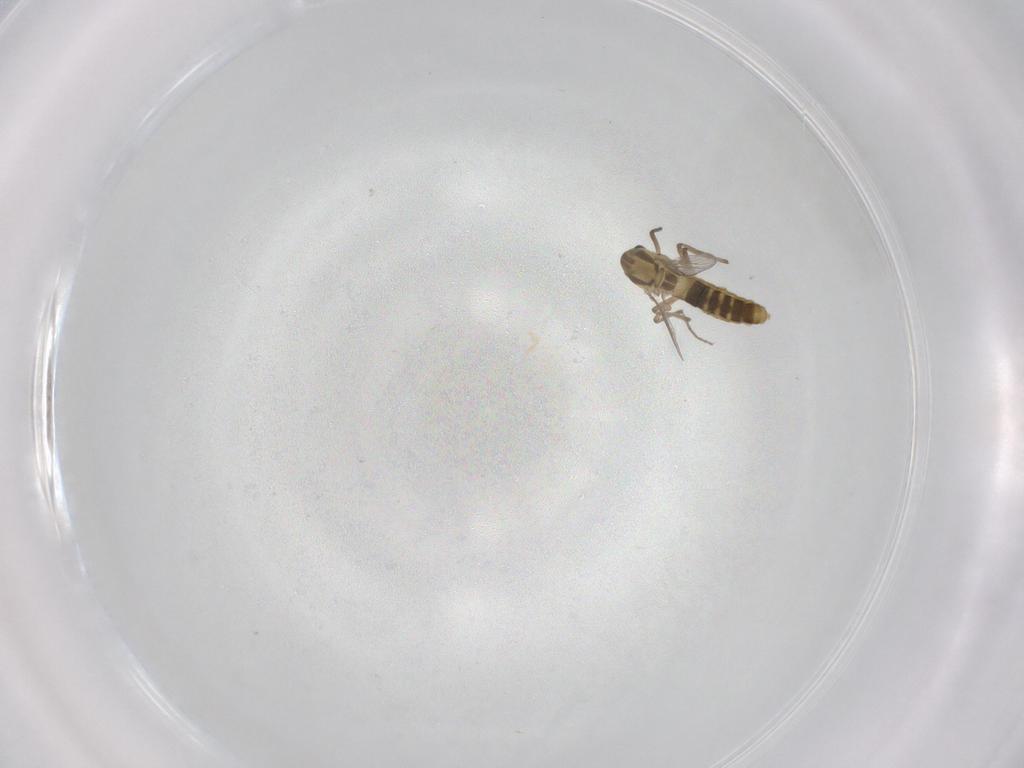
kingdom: Animalia
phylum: Arthropoda
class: Insecta
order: Diptera
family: Chironomidae
